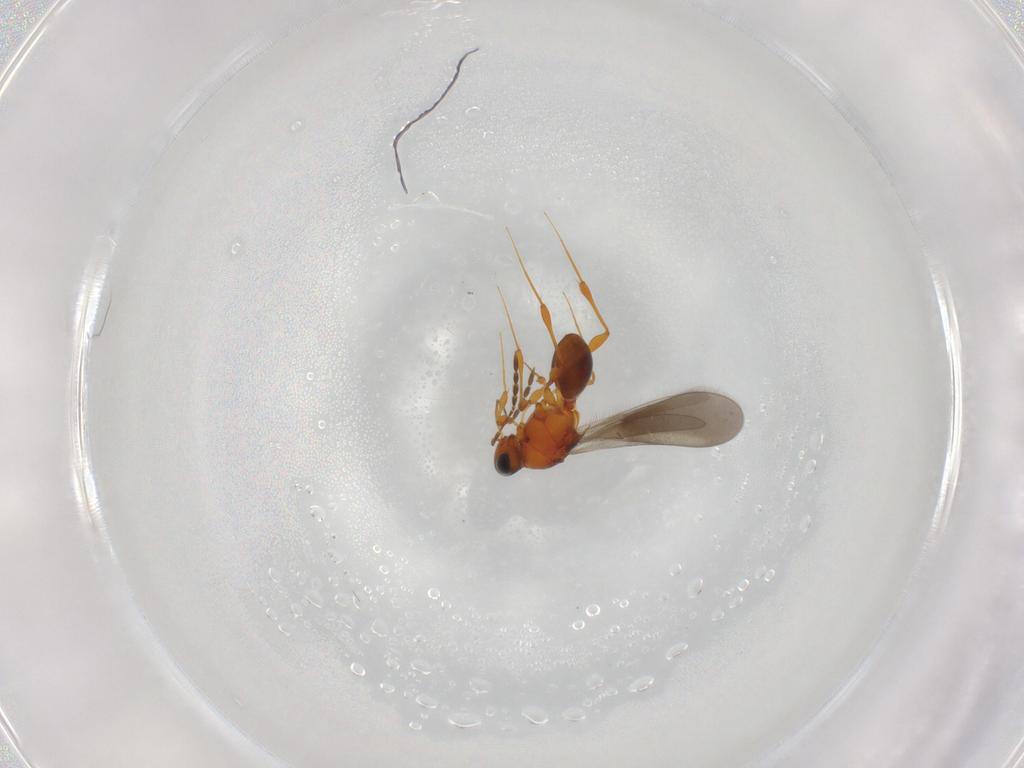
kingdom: Animalia
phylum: Arthropoda
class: Insecta
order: Hymenoptera
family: Platygastridae
